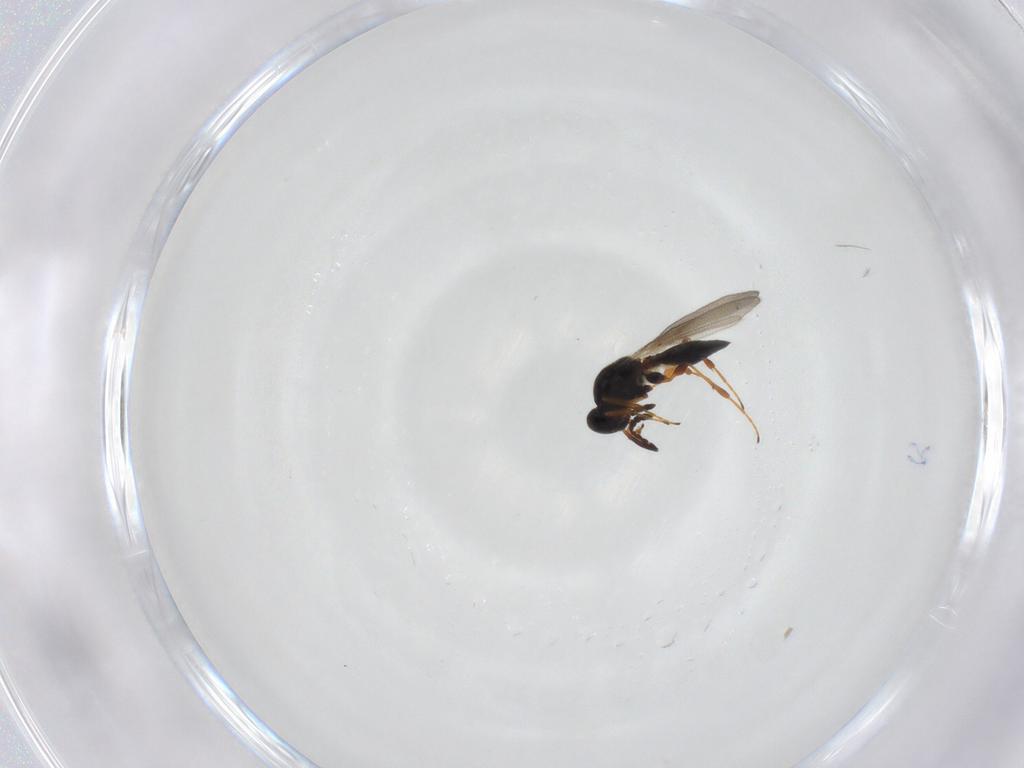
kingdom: Animalia
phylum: Arthropoda
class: Insecta
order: Hymenoptera
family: Platygastridae
